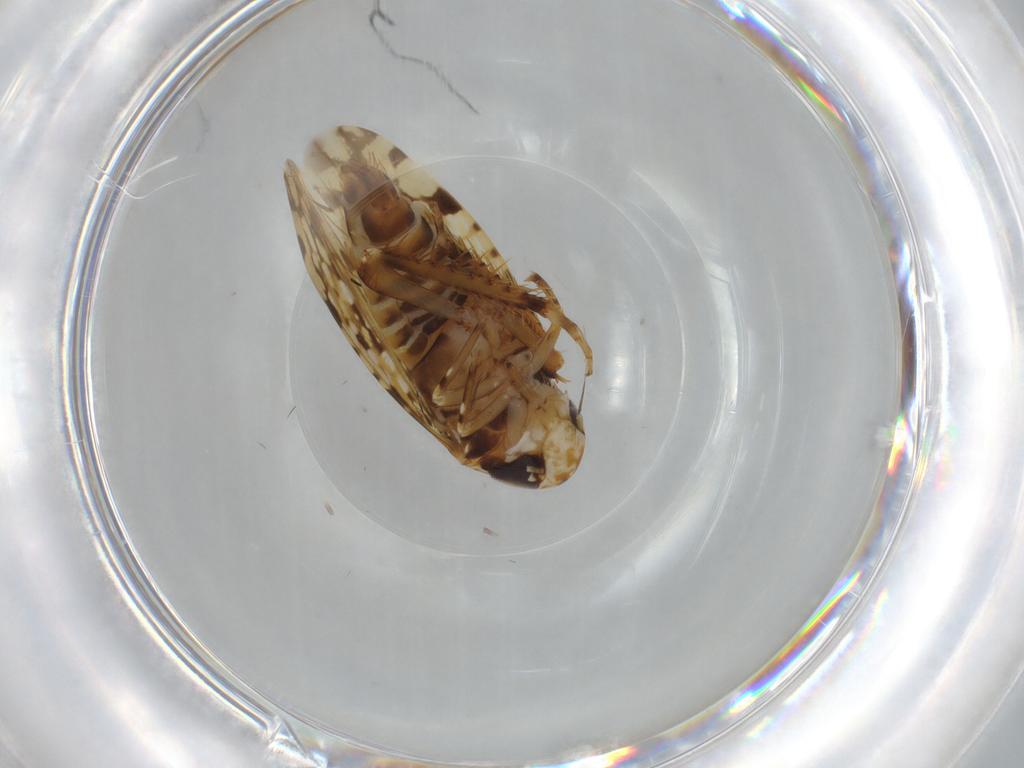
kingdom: Animalia
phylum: Arthropoda
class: Insecta
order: Hemiptera
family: Cicadellidae
